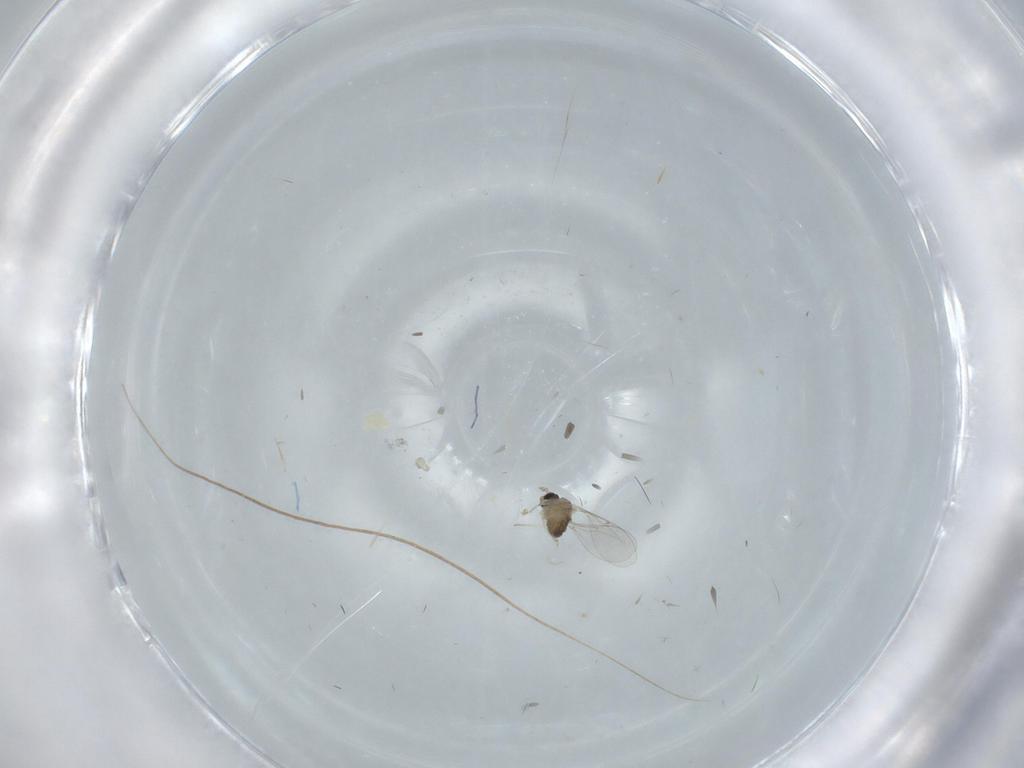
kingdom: Animalia
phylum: Arthropoda
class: Insecta
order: Diptera
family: Cecidomyiidae
